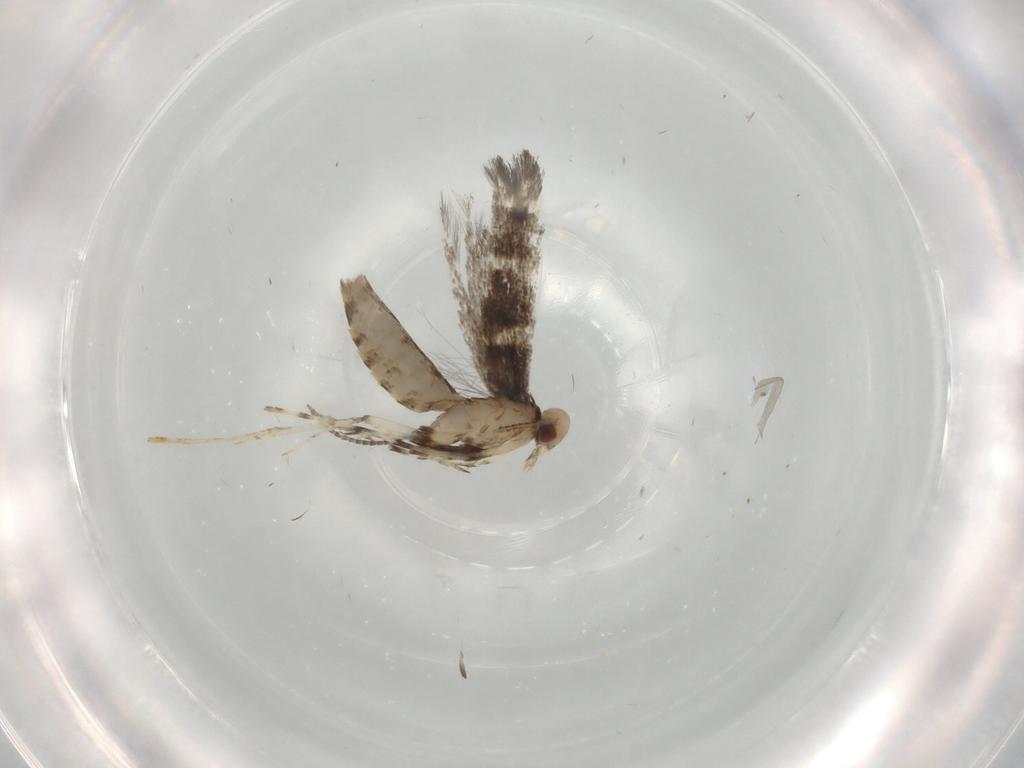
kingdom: Animalia
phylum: Arthropoda
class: Insecta
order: Lepidoptera
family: Gracillariidae
